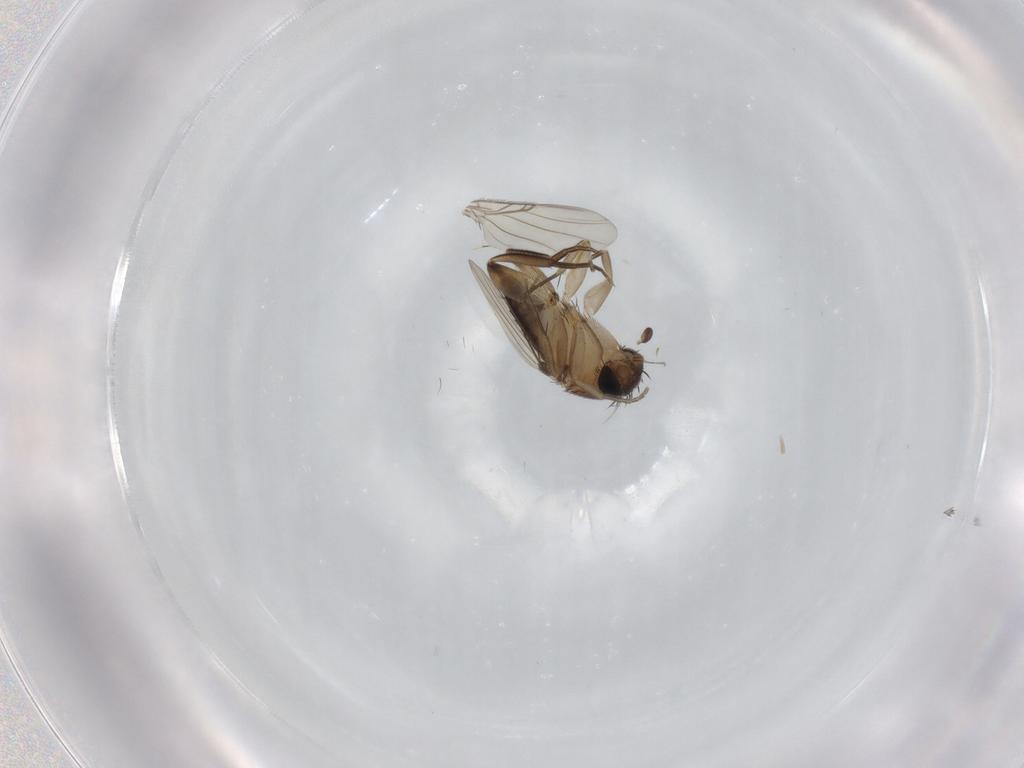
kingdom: Animalia
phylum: Arthropoda
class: Insecta
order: Diptera
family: Phoridae
